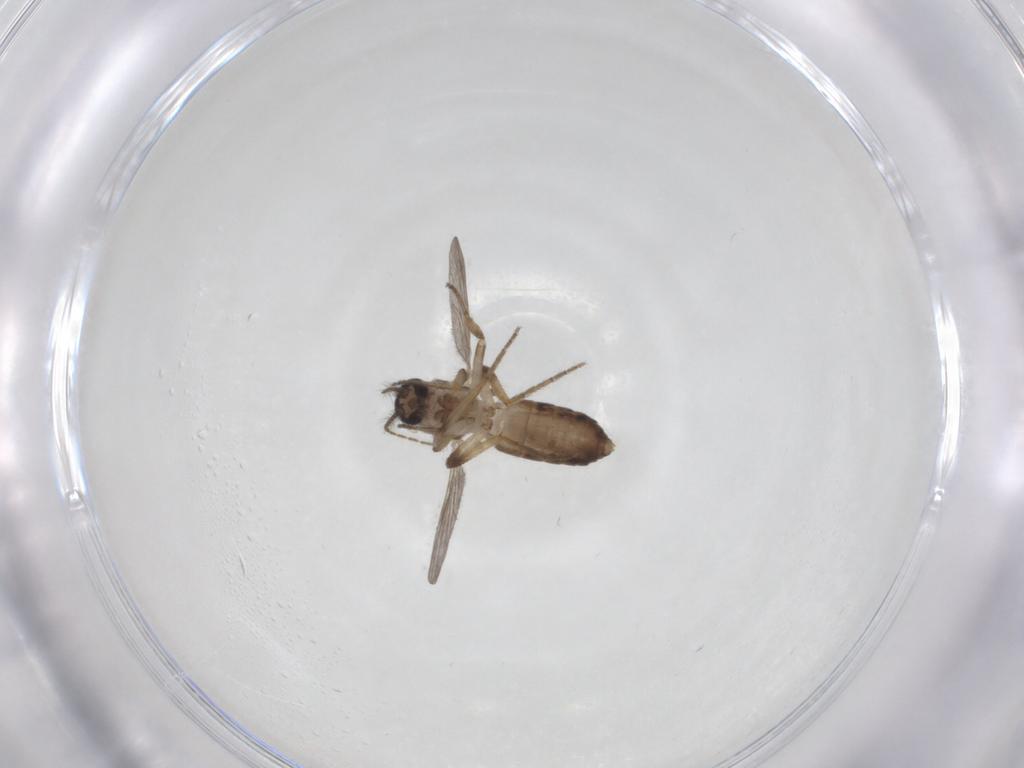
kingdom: Animalia
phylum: Arthropoda
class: Insecta
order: Diptera
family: Ceratopogonidae
